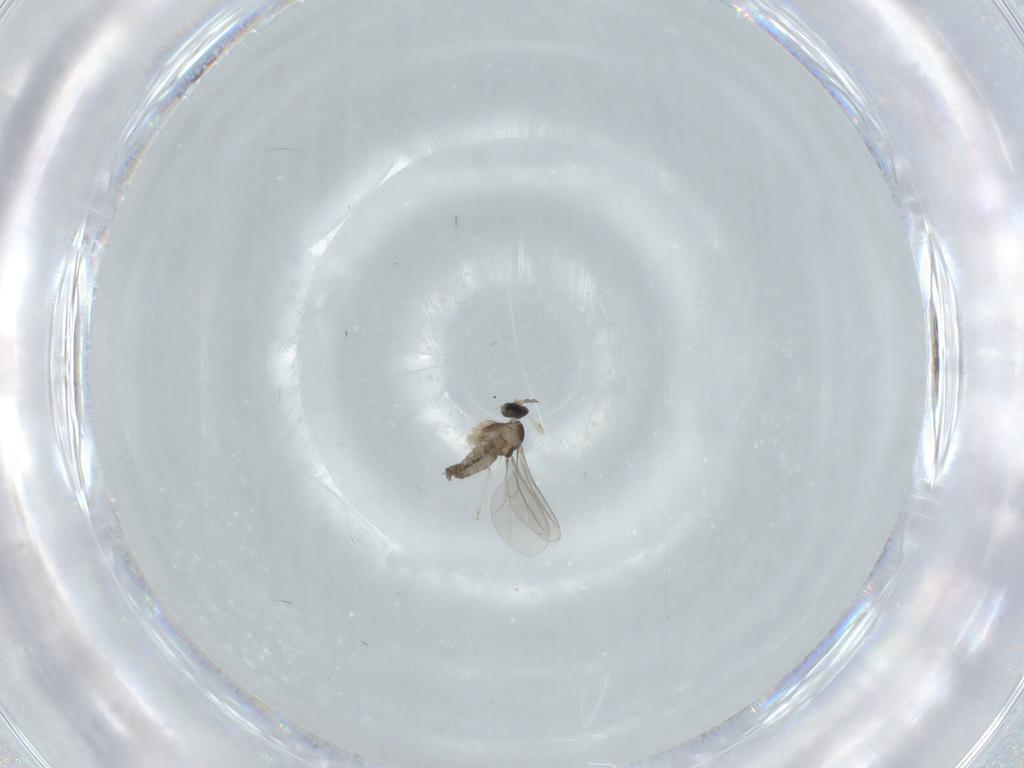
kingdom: Animalia
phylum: Arthropoda
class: Insecta
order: Diptera
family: Cecidomyiidae
